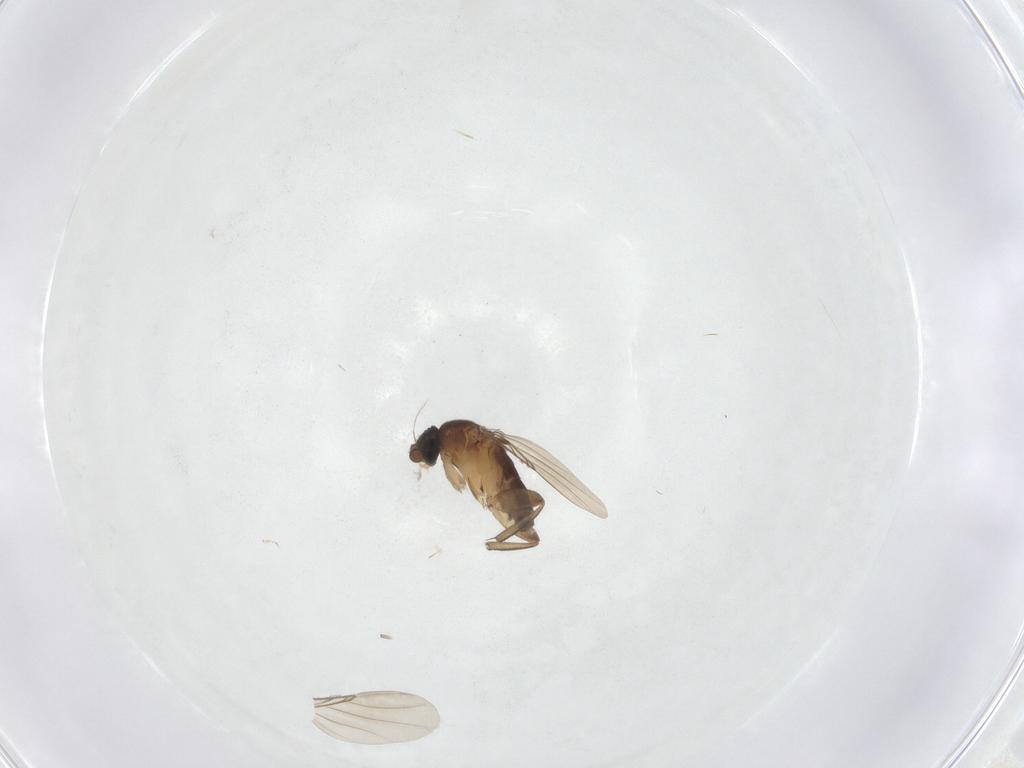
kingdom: Animalia
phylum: Arthropoda
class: Insecta
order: Diptera
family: Phoridae
